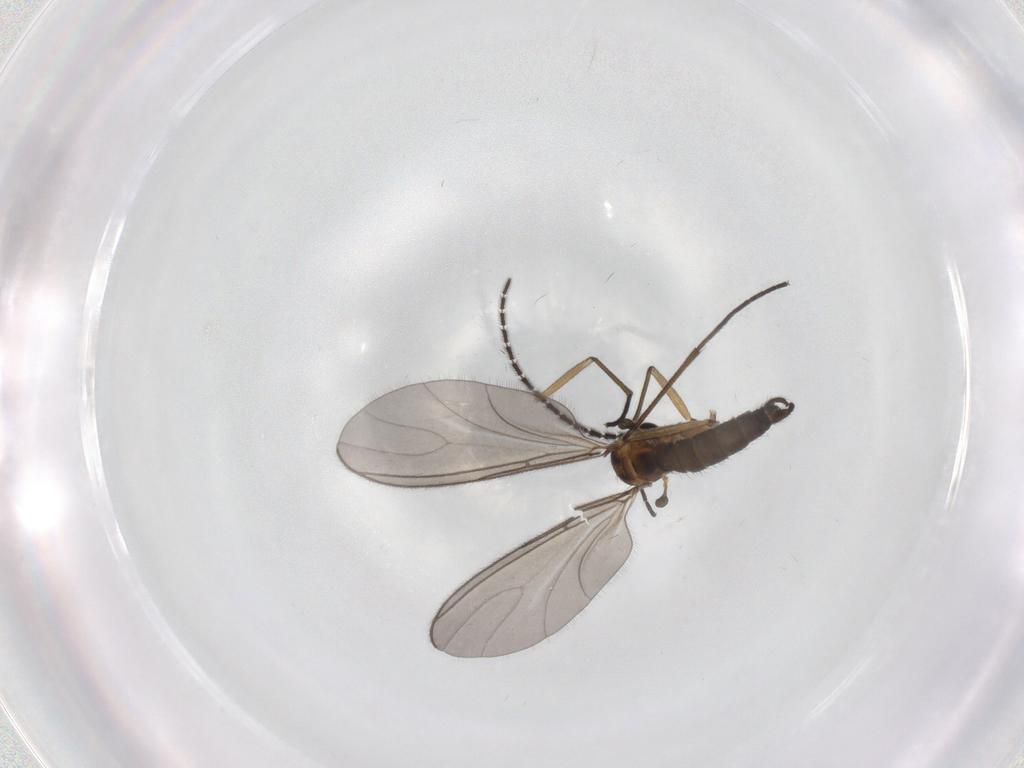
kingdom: Animalia
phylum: Arthropoda
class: Insecta
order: Diptera
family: Sciaridae
